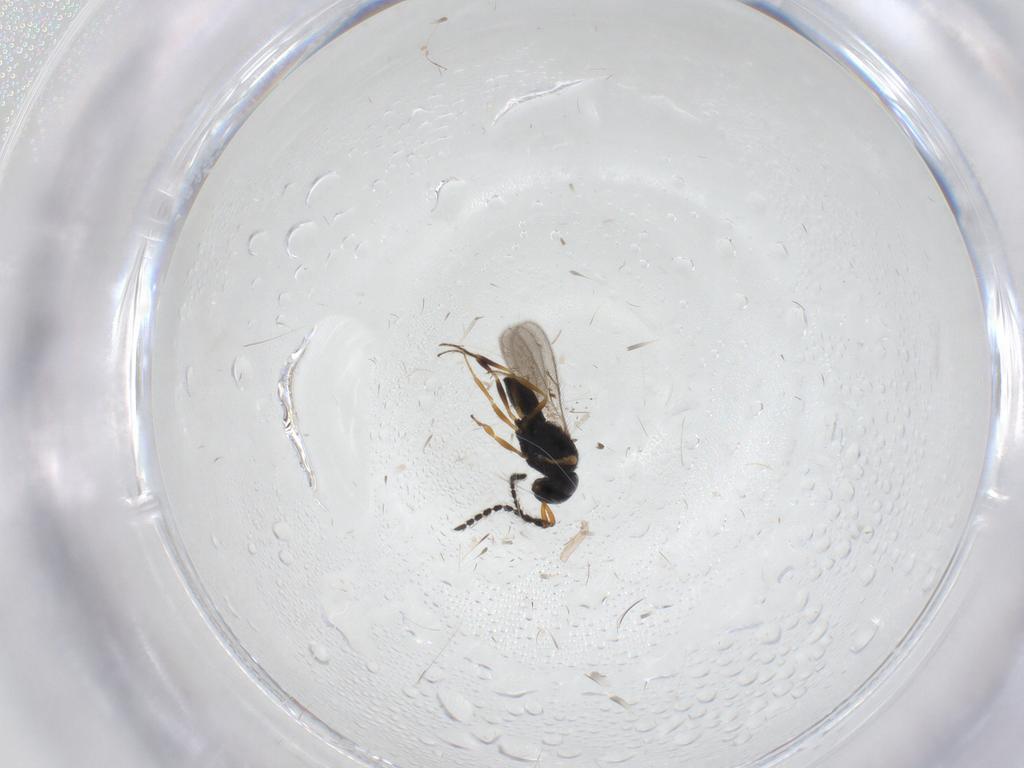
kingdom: Animalia
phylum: Arthropoda
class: Insecta
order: Hymenoptera
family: Scelionidae
